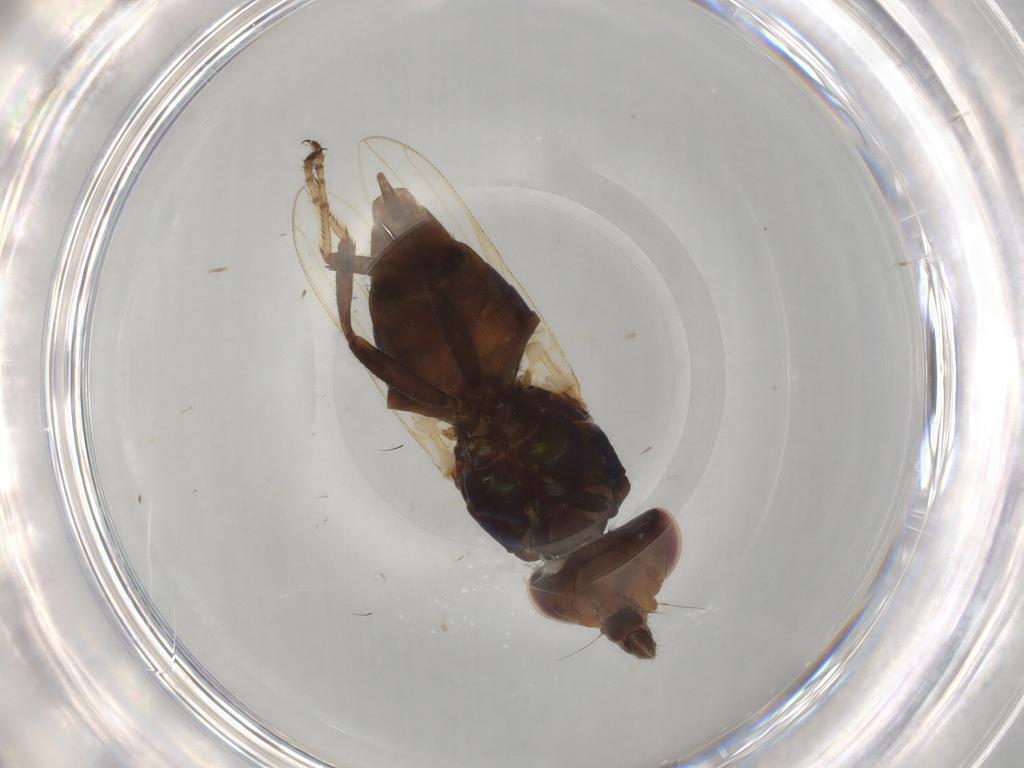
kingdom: Animalia
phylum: Arthropoda
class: Insecta
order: Diptera
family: Ulidiidae
